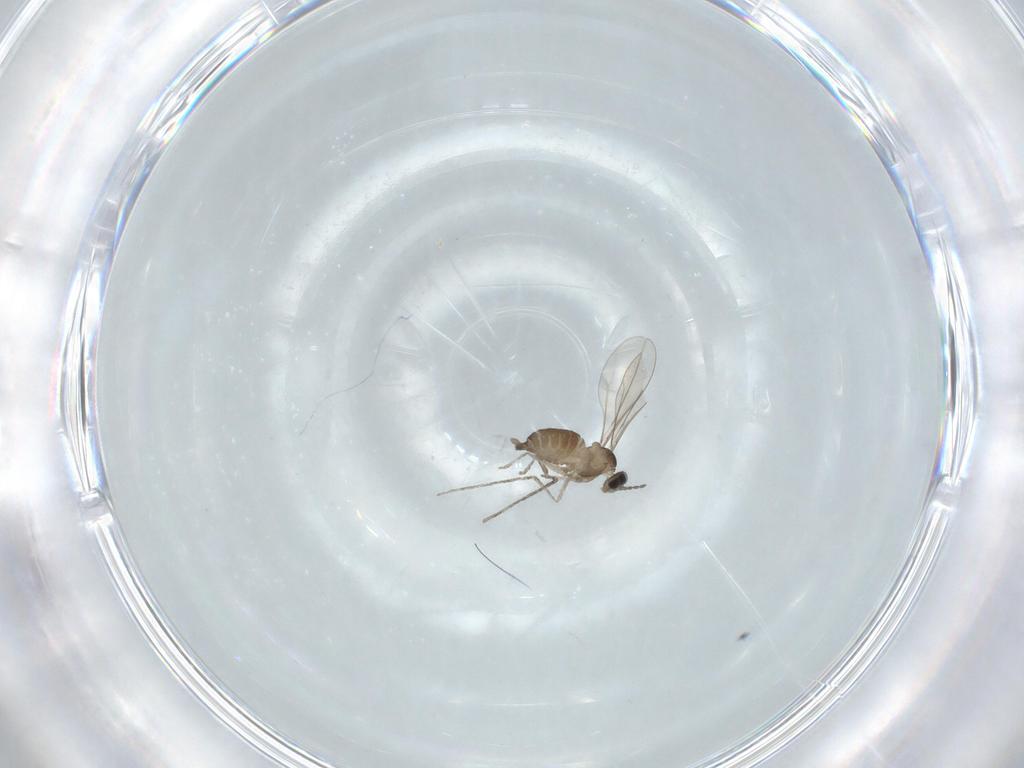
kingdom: Animalia
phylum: Arthropoda
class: Insecta
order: Diptera
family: Cecidomyiidae
